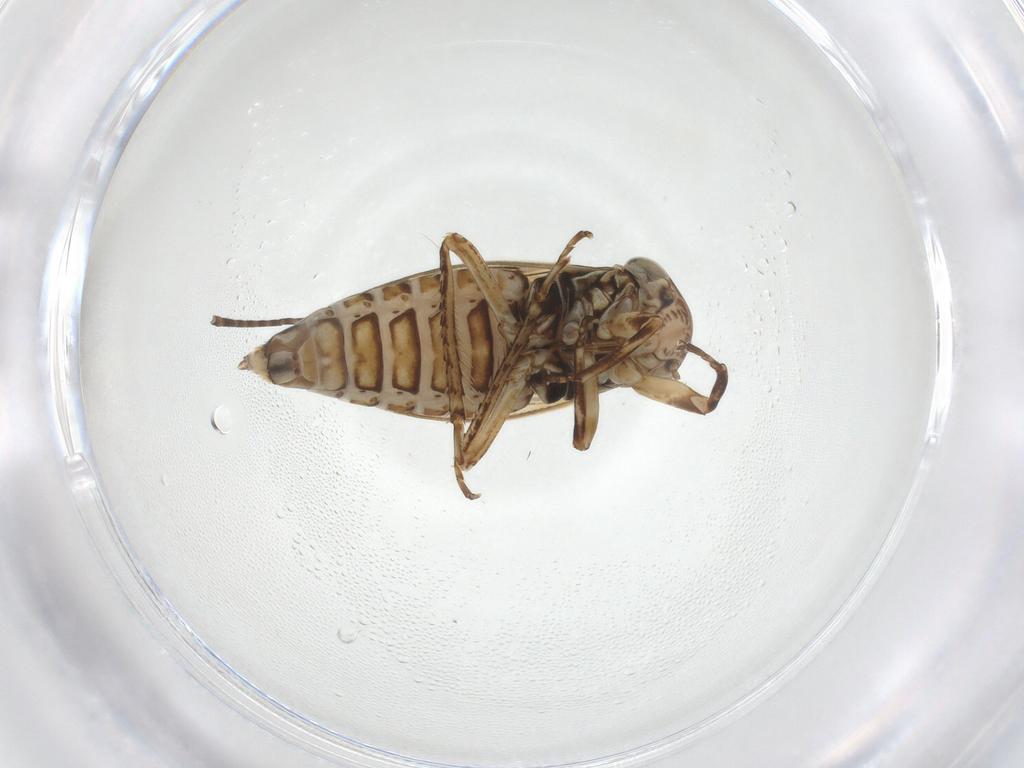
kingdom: Animalia
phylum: Arthropoda
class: Insecta
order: Hemiptera
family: Cicadellidae
